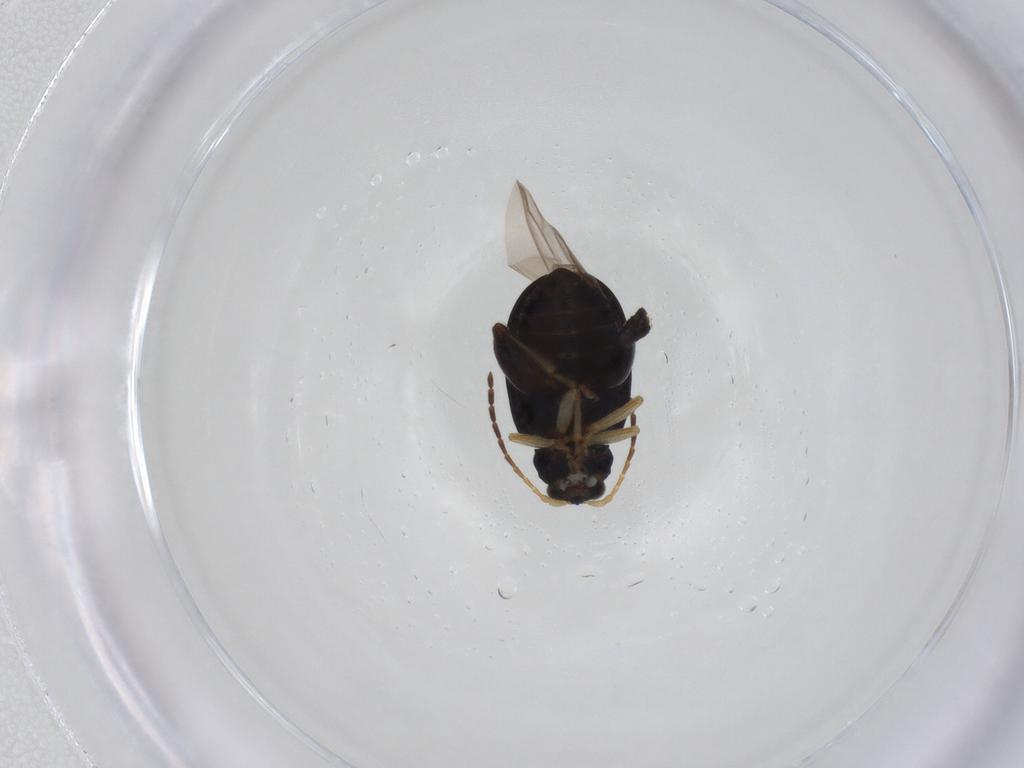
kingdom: Animalia
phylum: Arthropoda
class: Insecta
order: Coleoptera
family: Chrysomelidae
